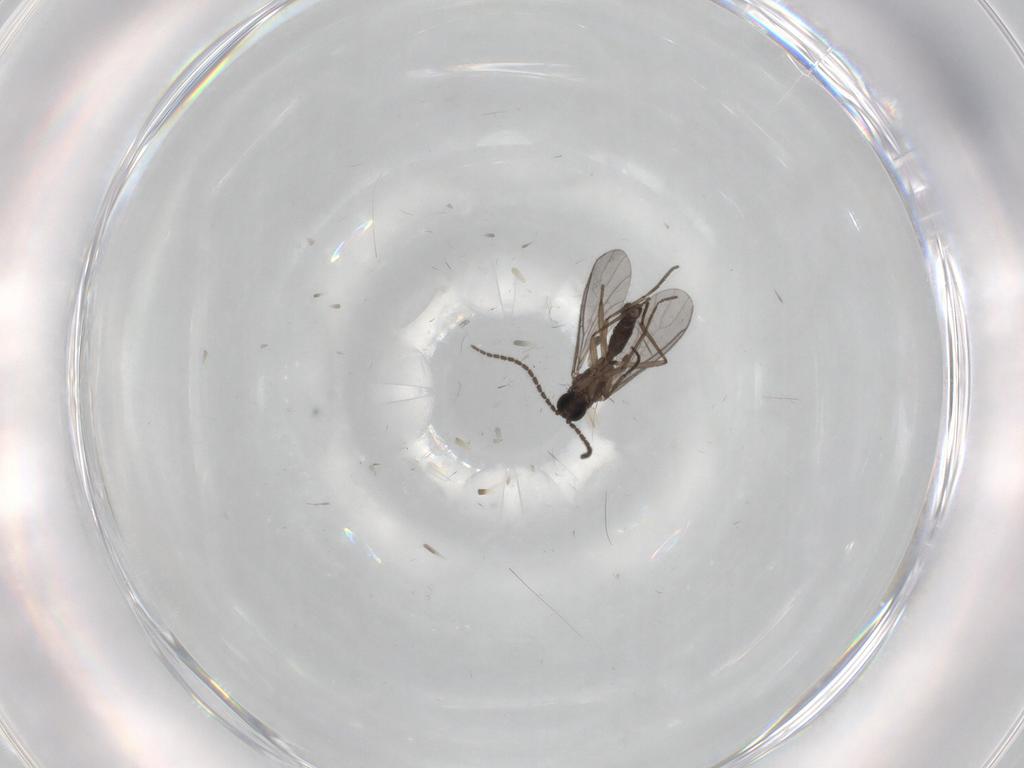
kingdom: Animalia
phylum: Arthropoda
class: Insecta
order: Diptera
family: Sciaridae
